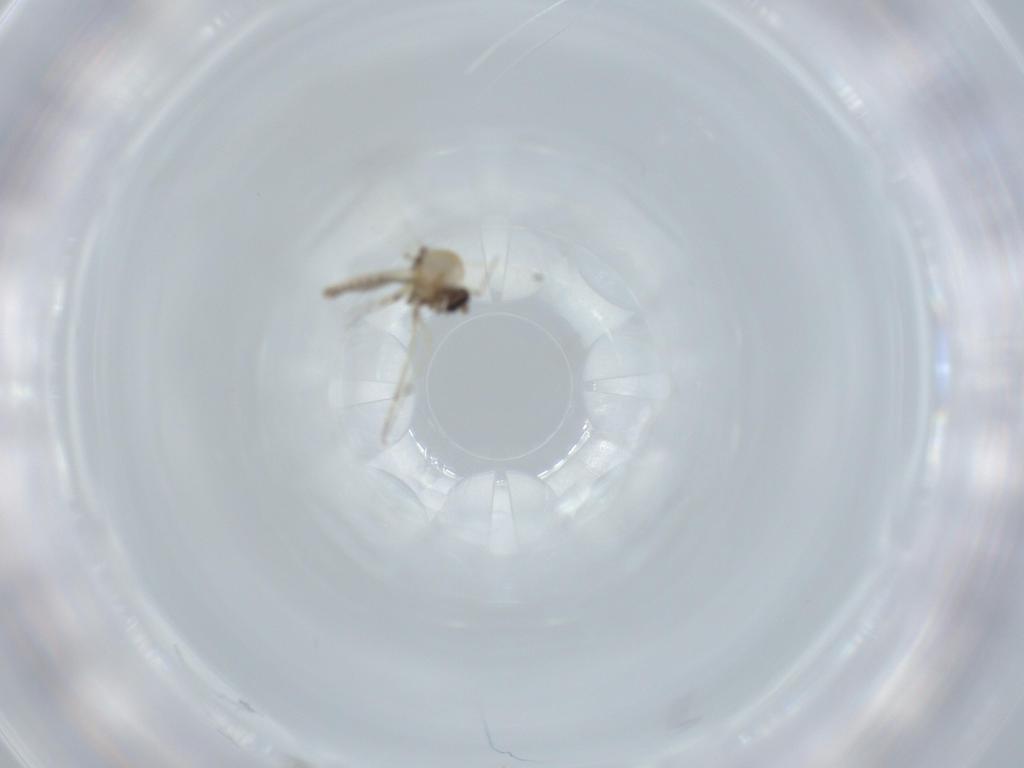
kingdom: Animalia
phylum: Arthropoda
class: Insecta
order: Diptera
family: Ceratopogonidae
